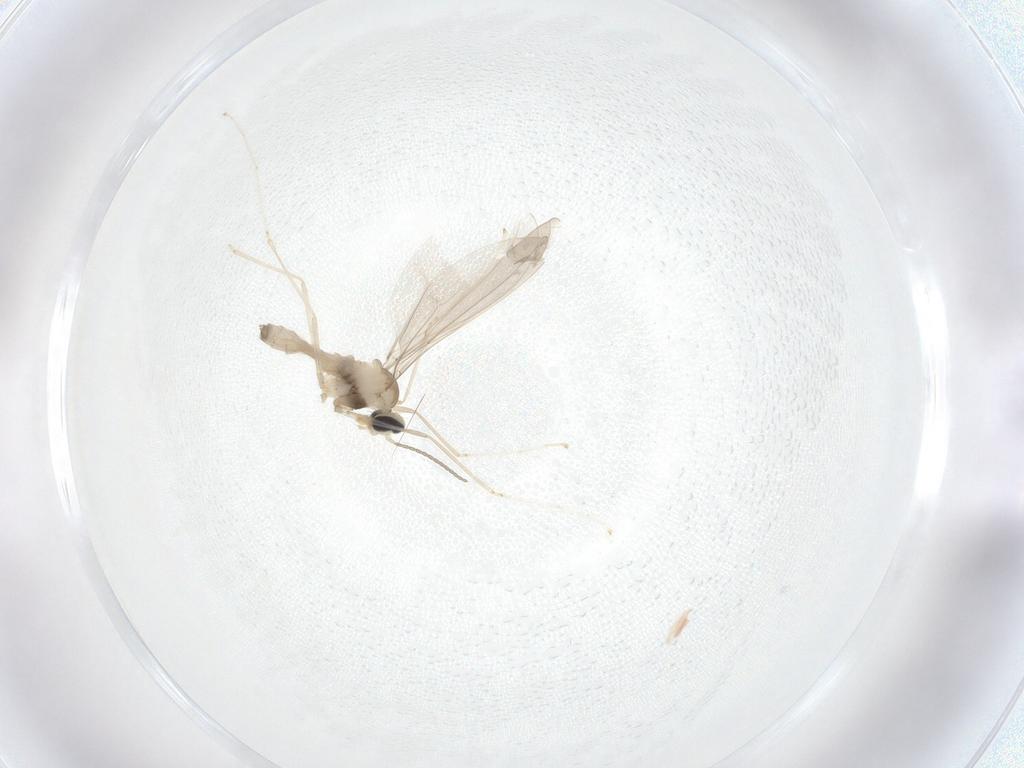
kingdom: Animalia
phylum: Arthropoda
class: Insecta
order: Diptera
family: Cecidomyiidae
